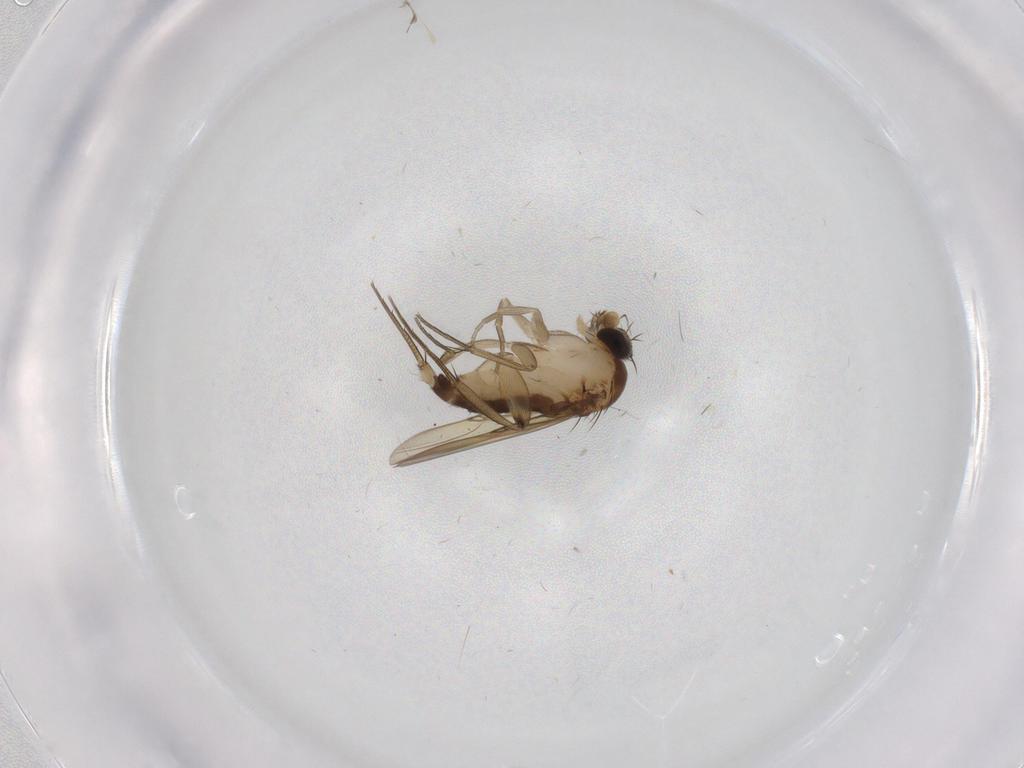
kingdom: Animalia
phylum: Arthropoda
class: Insecta
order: Diptera
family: Phoridae
